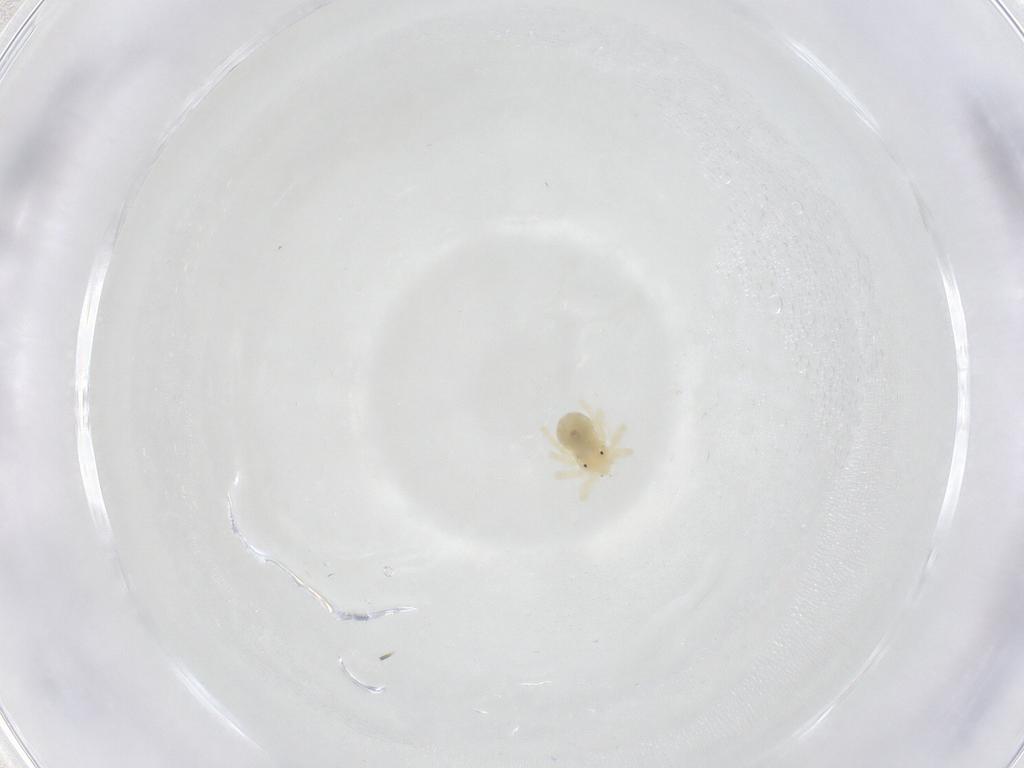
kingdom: Animalia
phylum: Arthropoda
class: Arachnida
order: Trombidiformes
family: Anystidae
